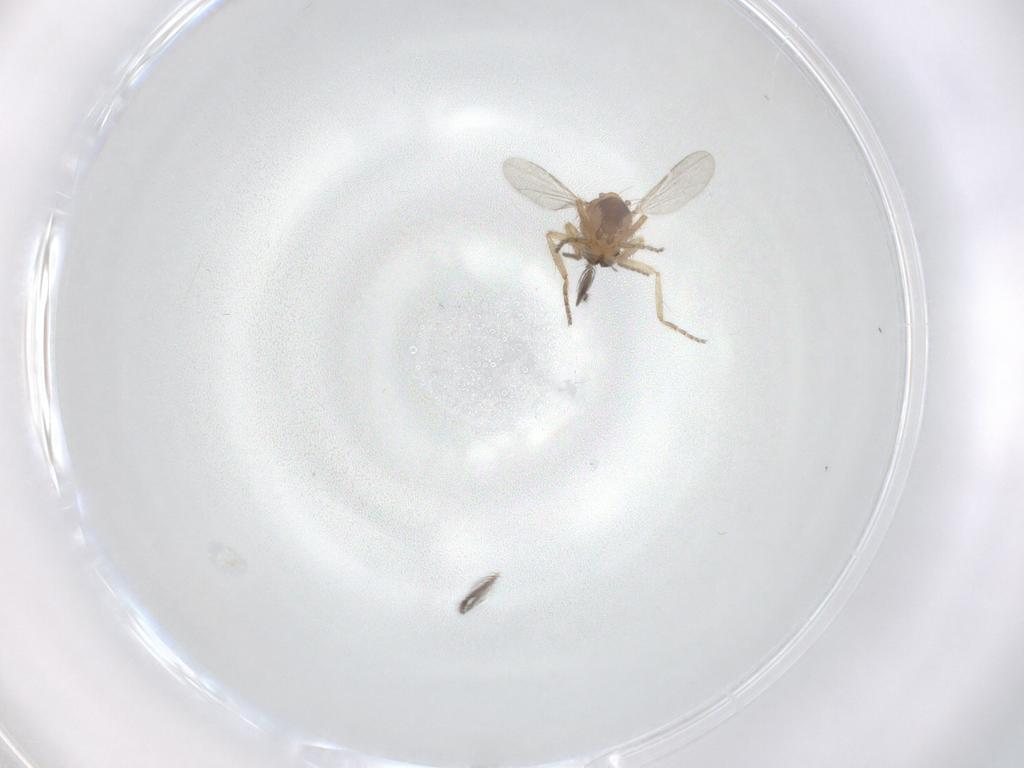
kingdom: Animalia
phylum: Arthropoda
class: Insecta
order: Diptera
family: Ceratopogonidae
